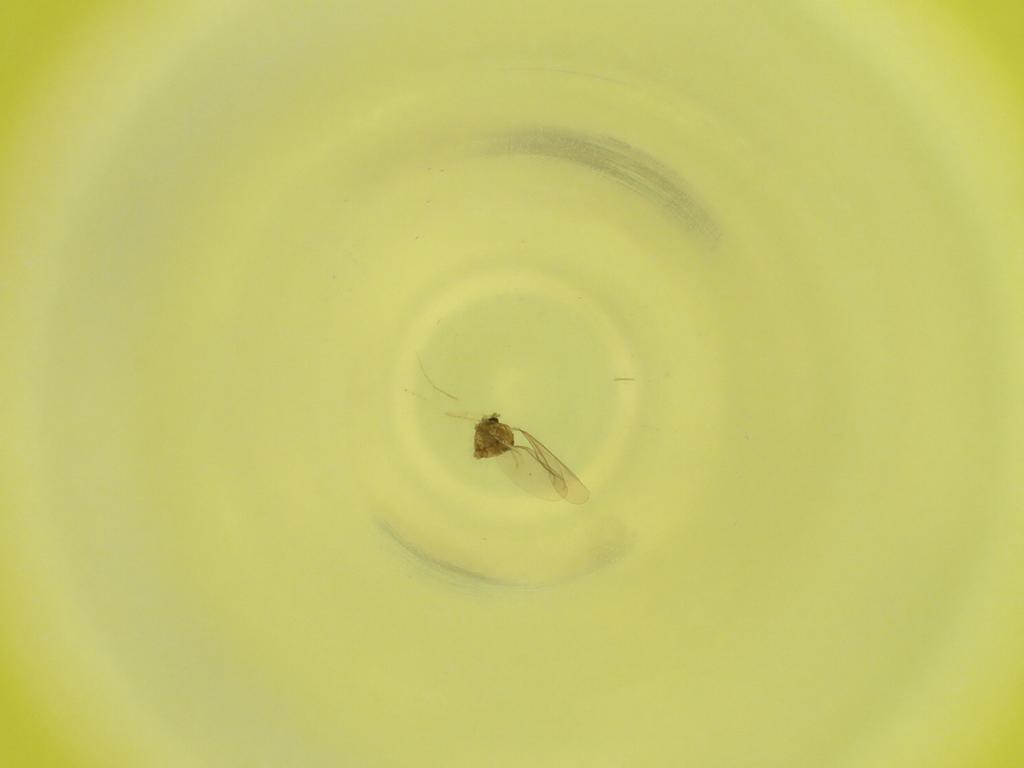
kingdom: Animalia
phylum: Arthropoda
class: Insecta
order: Diptera
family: Cecidomyiidae
